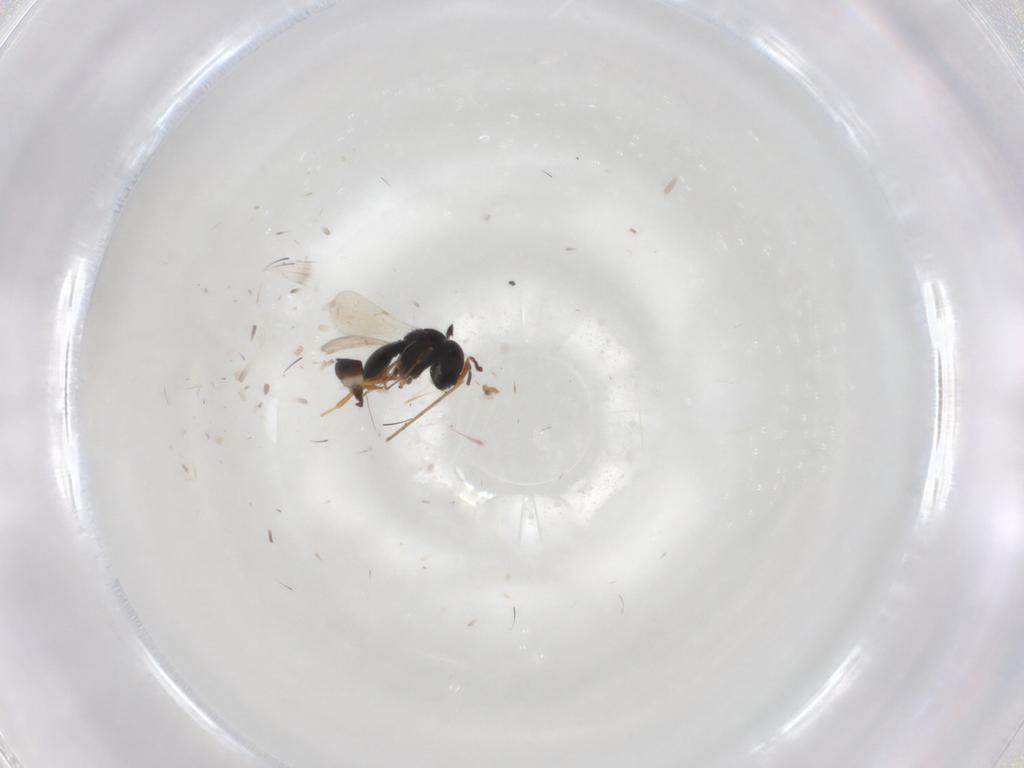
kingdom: Animalia
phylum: Arthropoda
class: Insecta
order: Hymenoptera
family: Scelionidae
